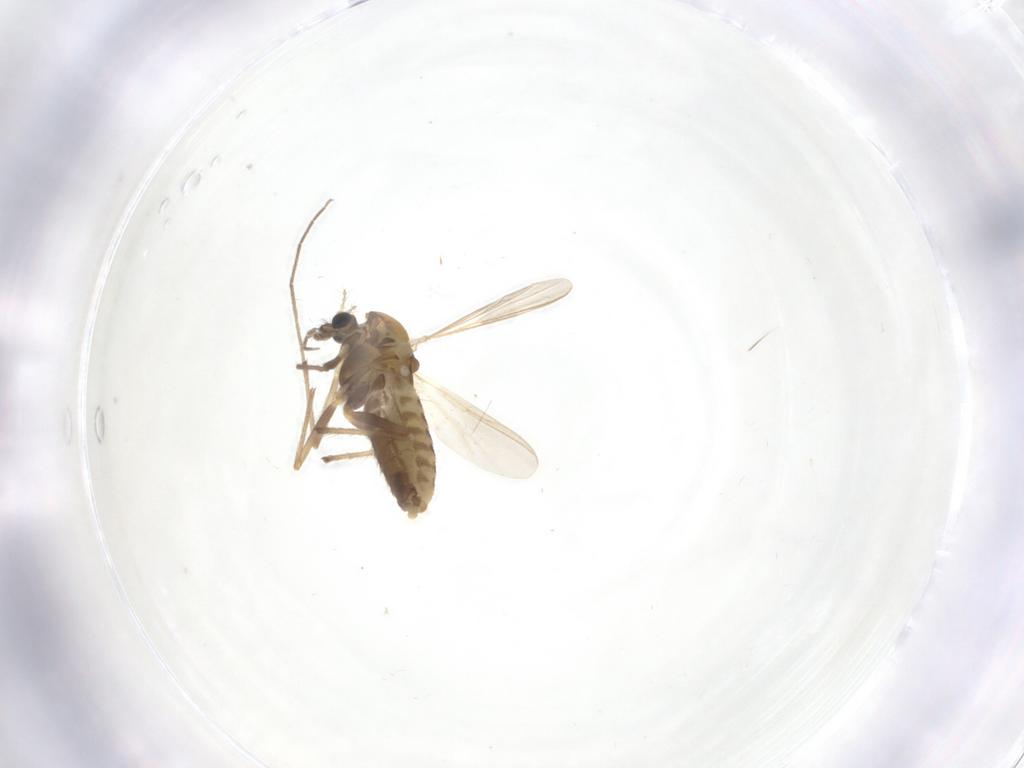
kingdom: Animalia
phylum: Arthropoda
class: Insecta
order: Diptera
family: Chironomidae
